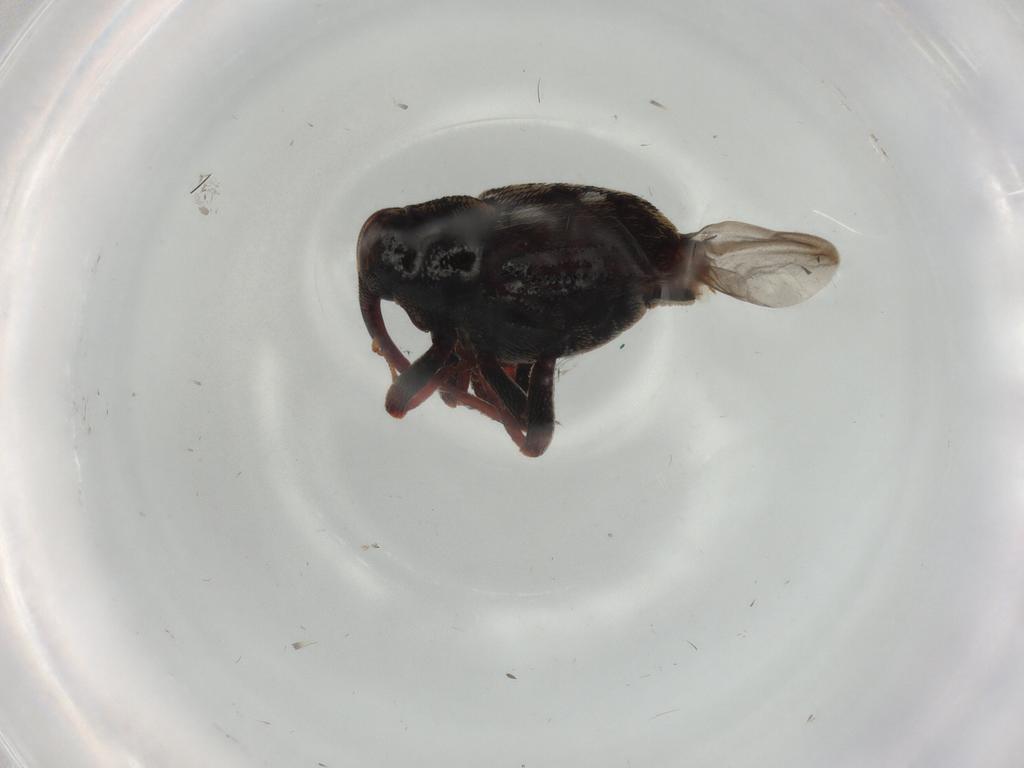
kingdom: Animalia
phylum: Arthropoda
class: Insecta
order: Coleoptera
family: Curculionidae
